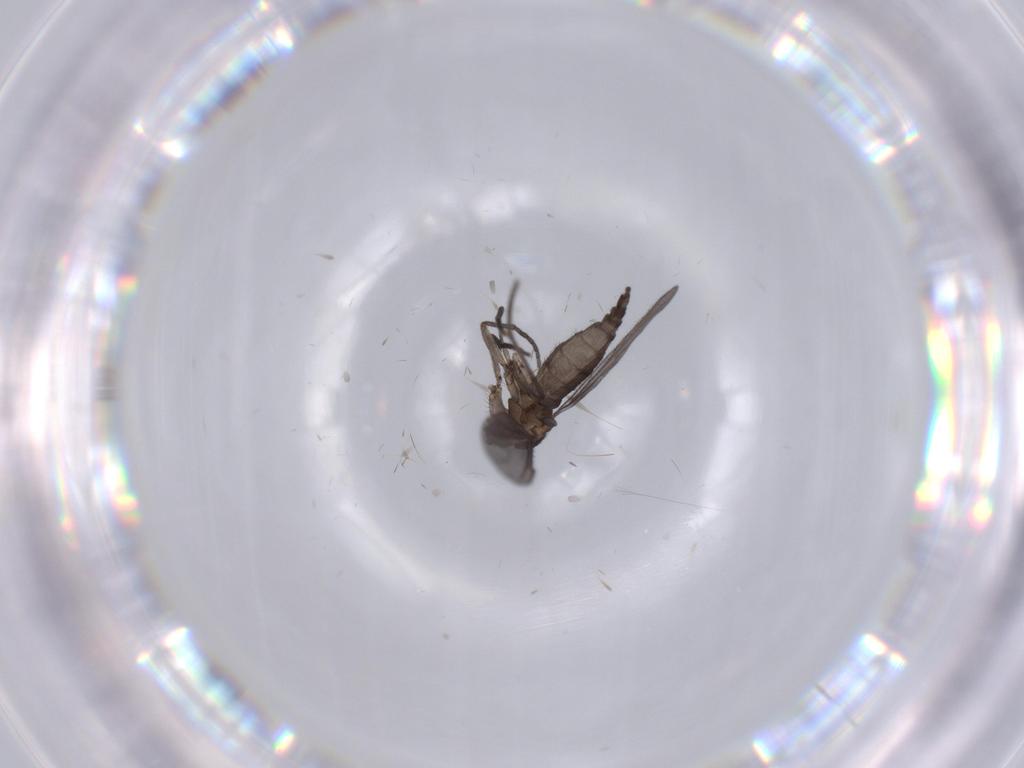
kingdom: Animalia
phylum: Arthropoda
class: Insecta
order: Diptera
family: Sciaridae
